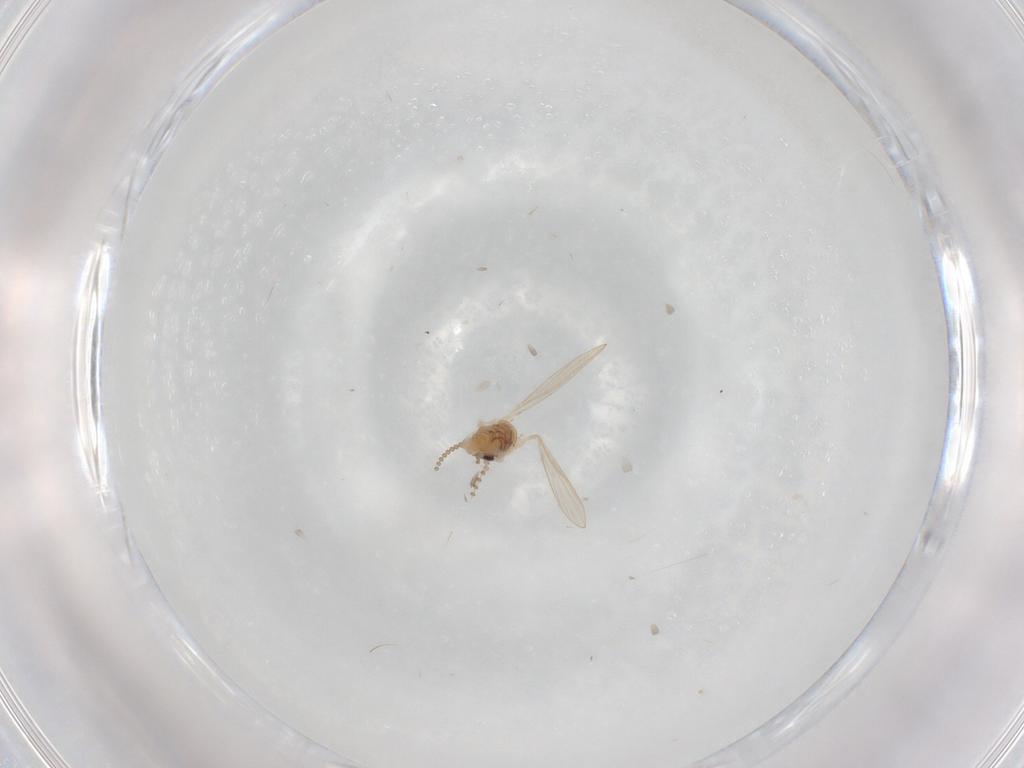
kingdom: Animalia
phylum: Arthropoda
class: Insecta
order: Diptera
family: Psychodidae
